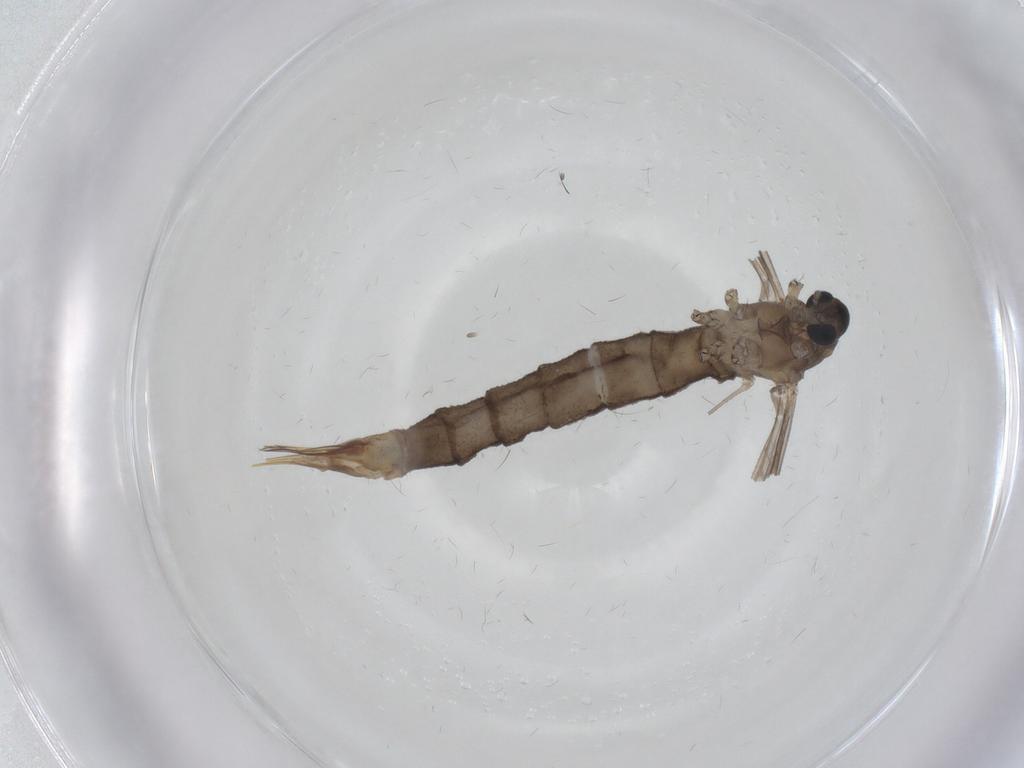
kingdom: Animalia
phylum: Arthropoda
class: Insecta
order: Diptera
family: Limoniidae
